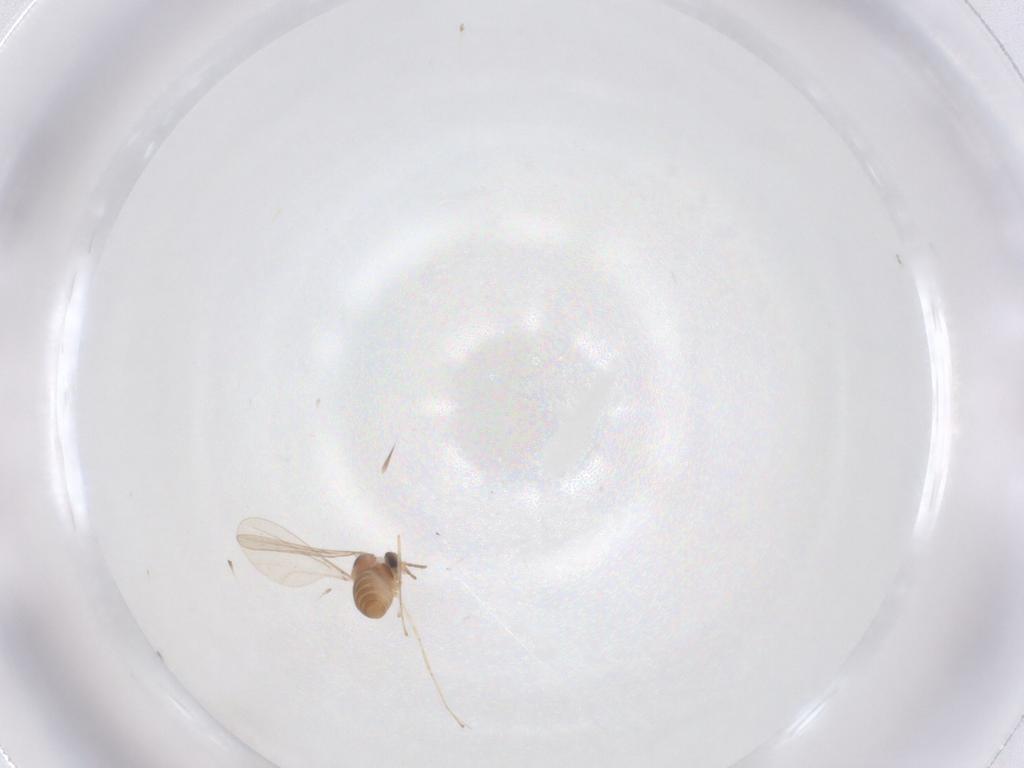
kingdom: Animalia
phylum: Arthropoda
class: Insecta
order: Diptera
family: Cecidomyiidae
